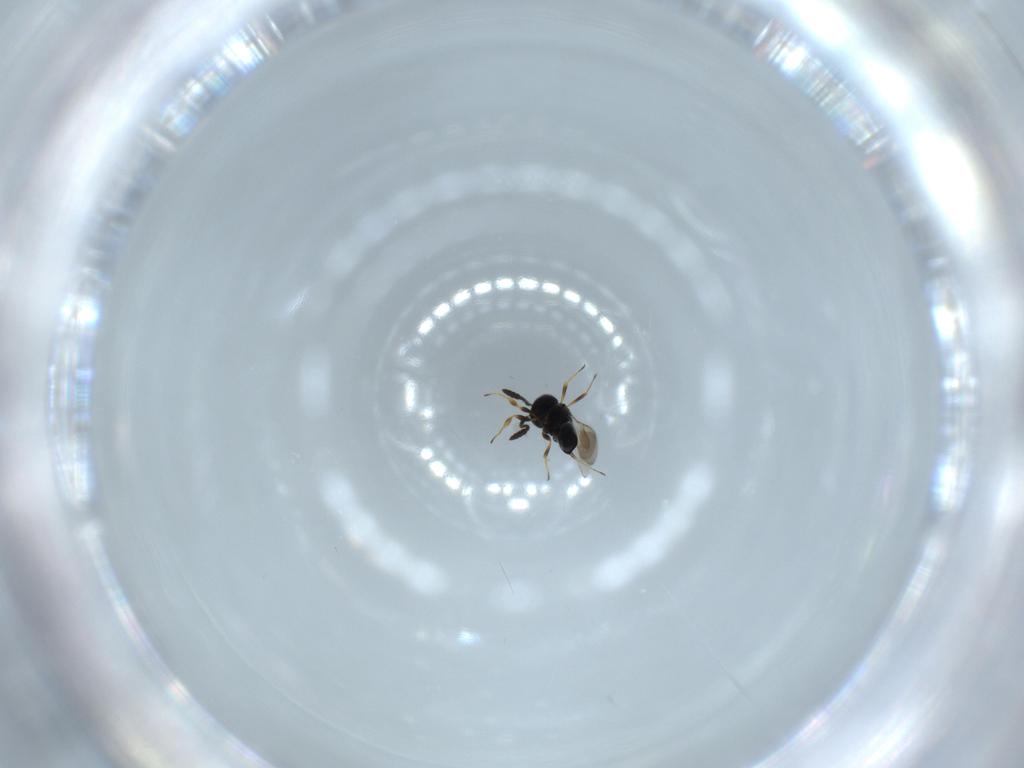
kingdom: Animalia
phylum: Arthropoda
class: Insecta
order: Hymenoptera
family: Scelionidae
